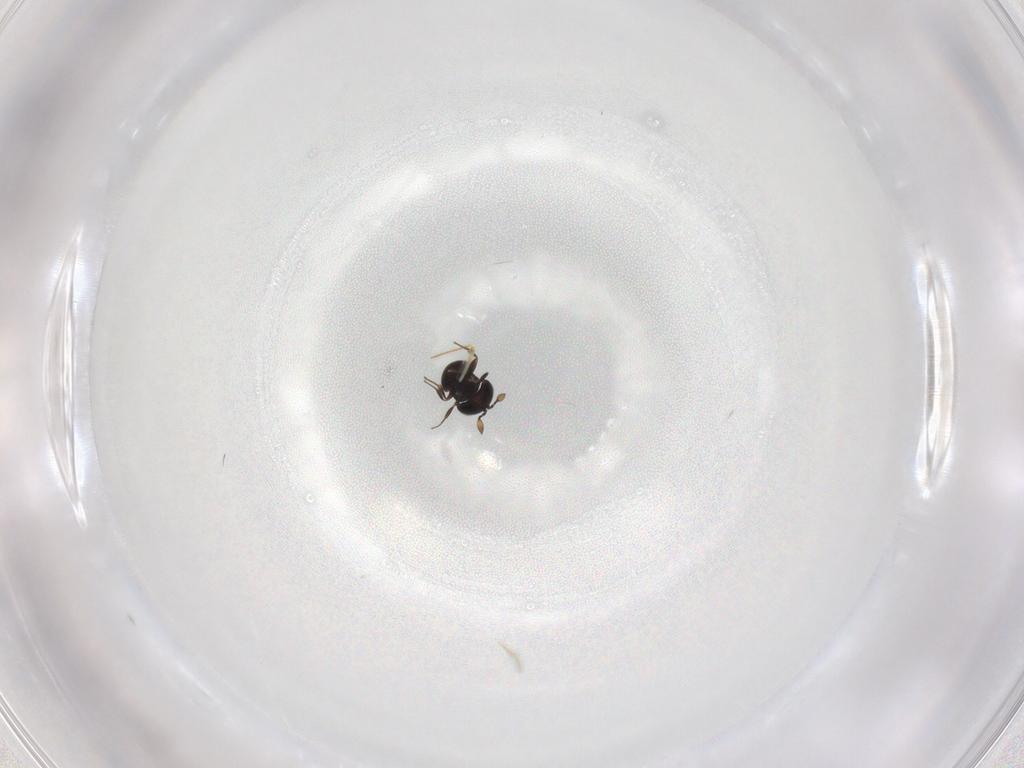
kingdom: Animalia
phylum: Arthropoda
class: Insecta
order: Hymenoptera
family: Scelionidae
